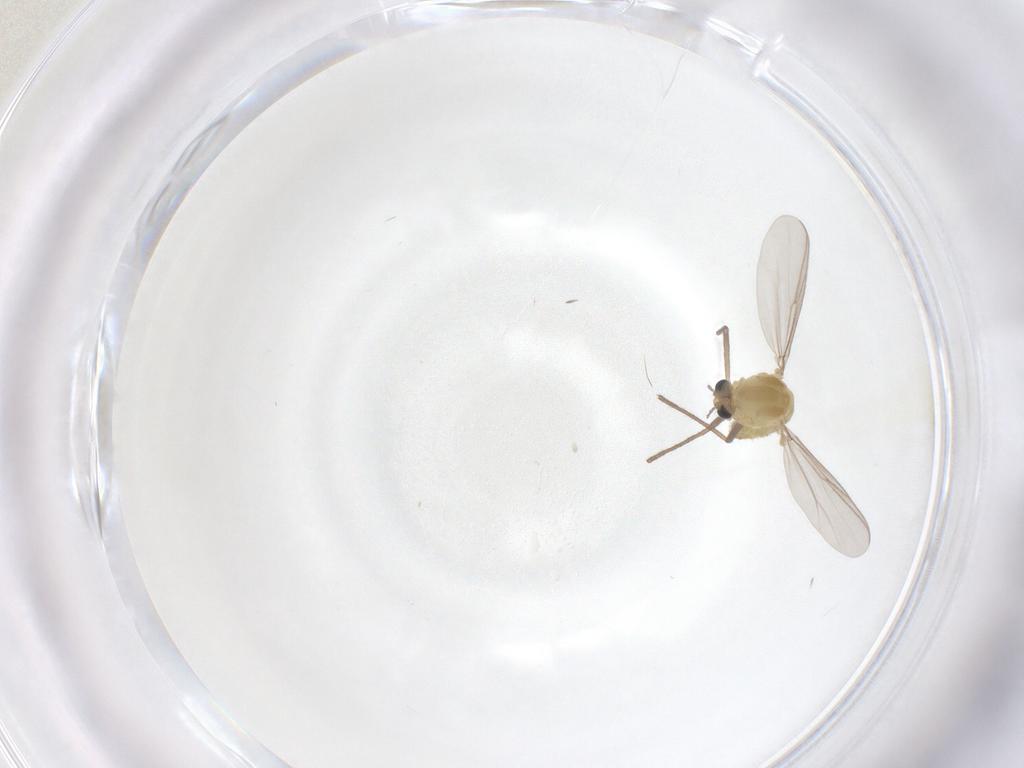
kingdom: Animalia
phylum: Arthropoda
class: Insecta
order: Diptera
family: Chironomidae
